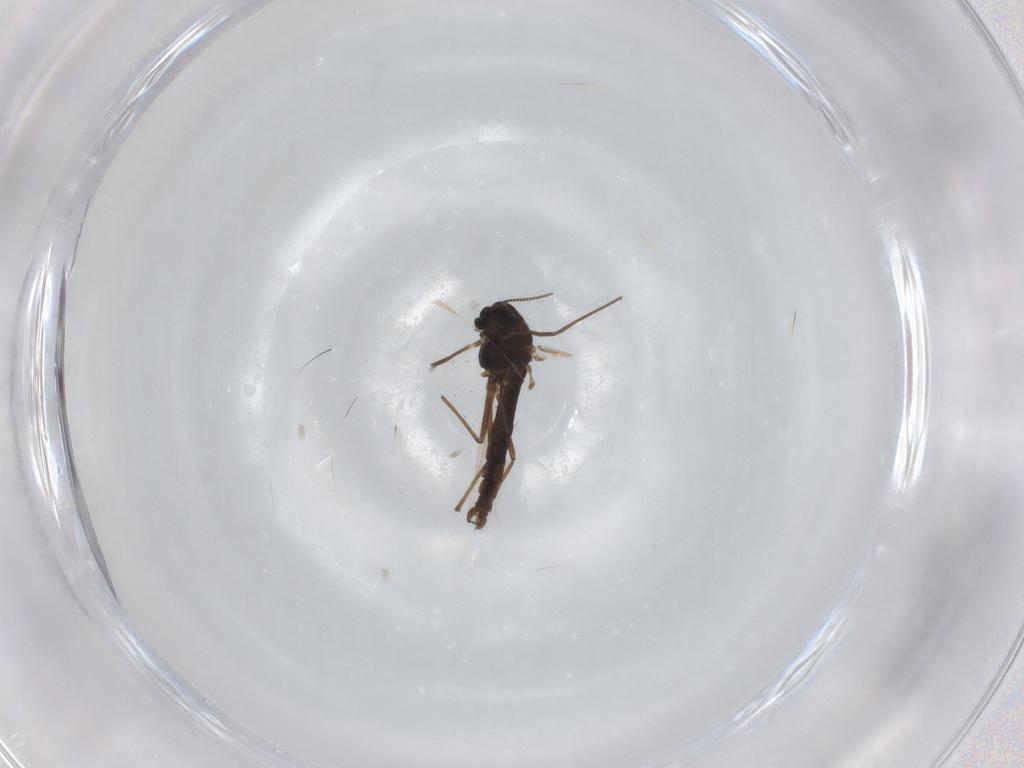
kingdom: Animalia
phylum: Arthropoda
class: Insecta
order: Diptera
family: Chironomidae
